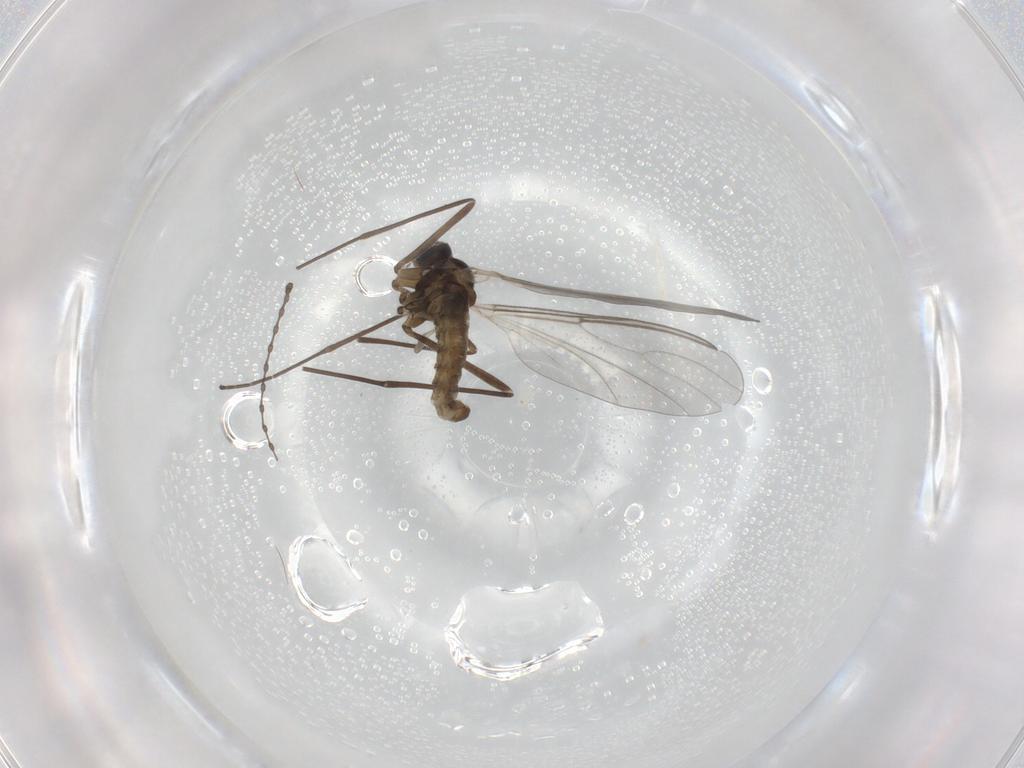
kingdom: Animalia
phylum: Arthropoda
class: Insecta
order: Diptera
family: Cecidomyiidae
